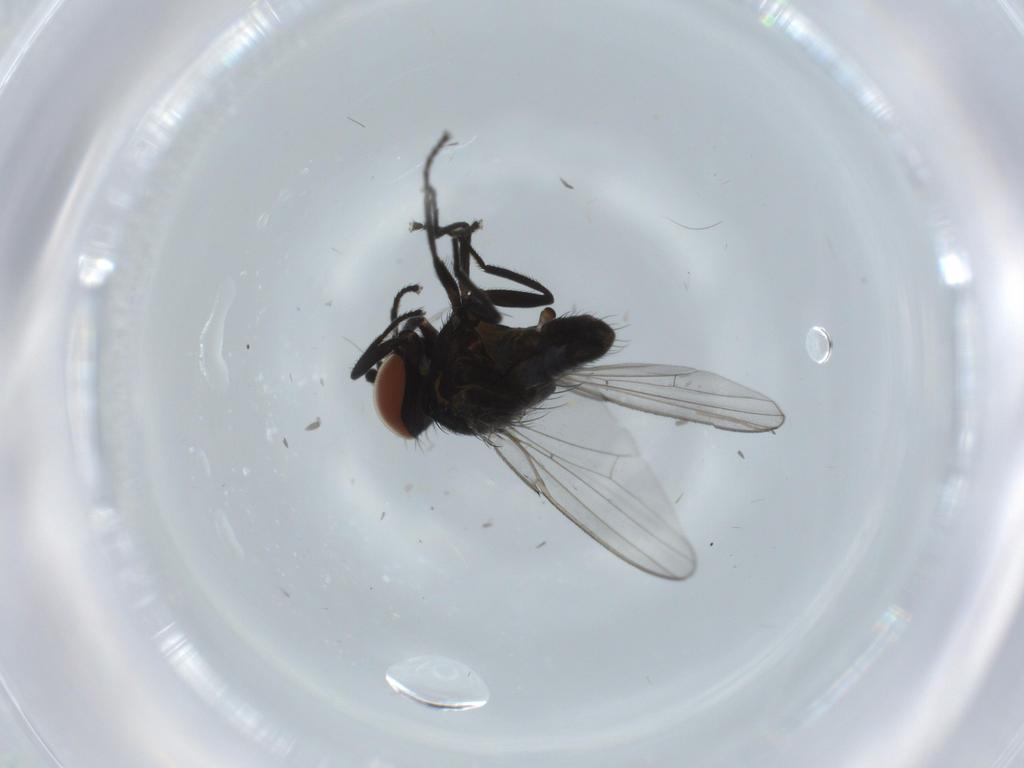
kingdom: Animalia
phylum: Arthropoda
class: Insecta
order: Diptera
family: Milichiidae
